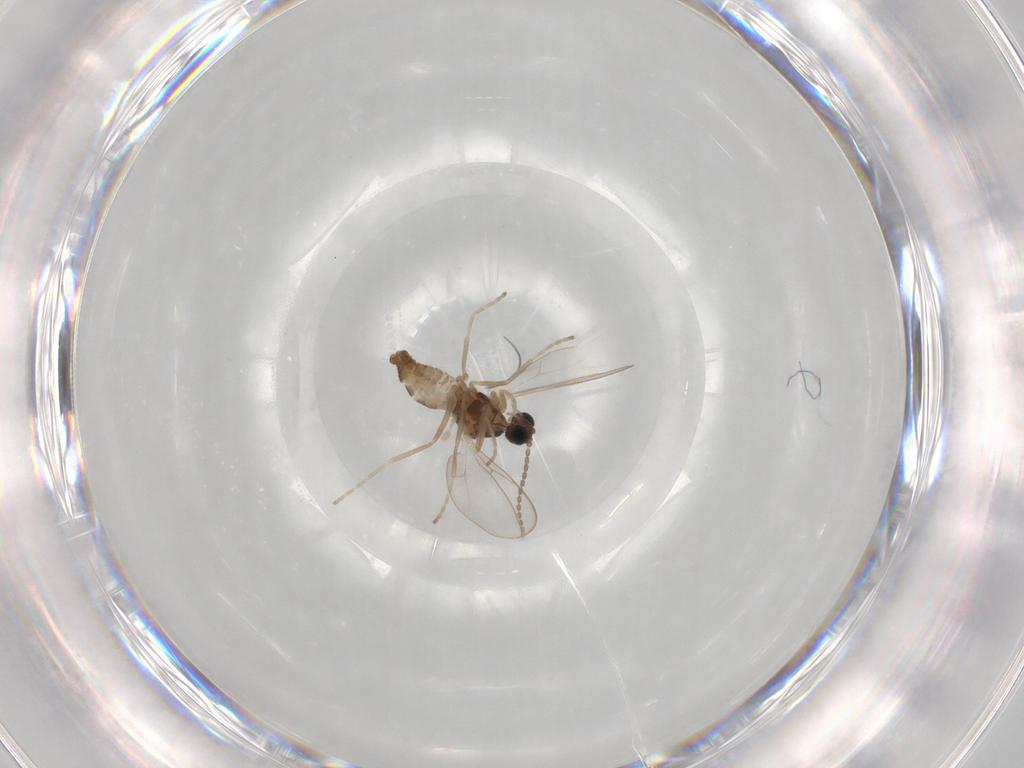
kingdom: Animalia
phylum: Arthropoda
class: Insecta
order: Diptera
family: Cecidomyiidae
